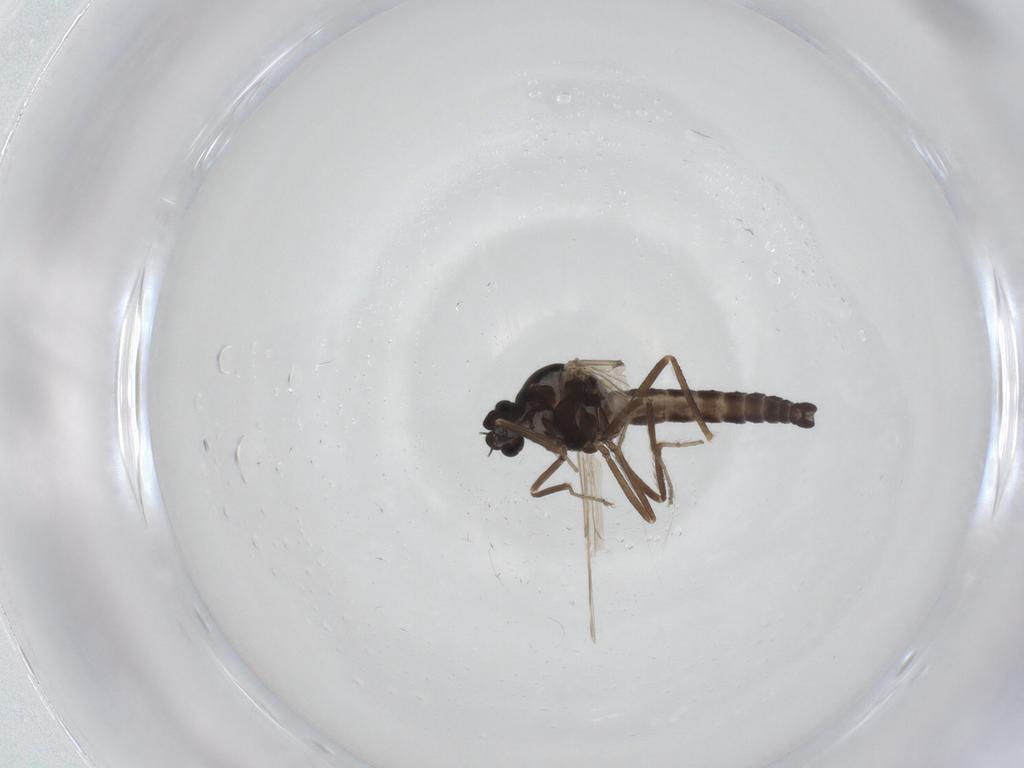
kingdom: Animalia
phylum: Arthropoda
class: Insecta
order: Diptera
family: Ceratopogonidae
